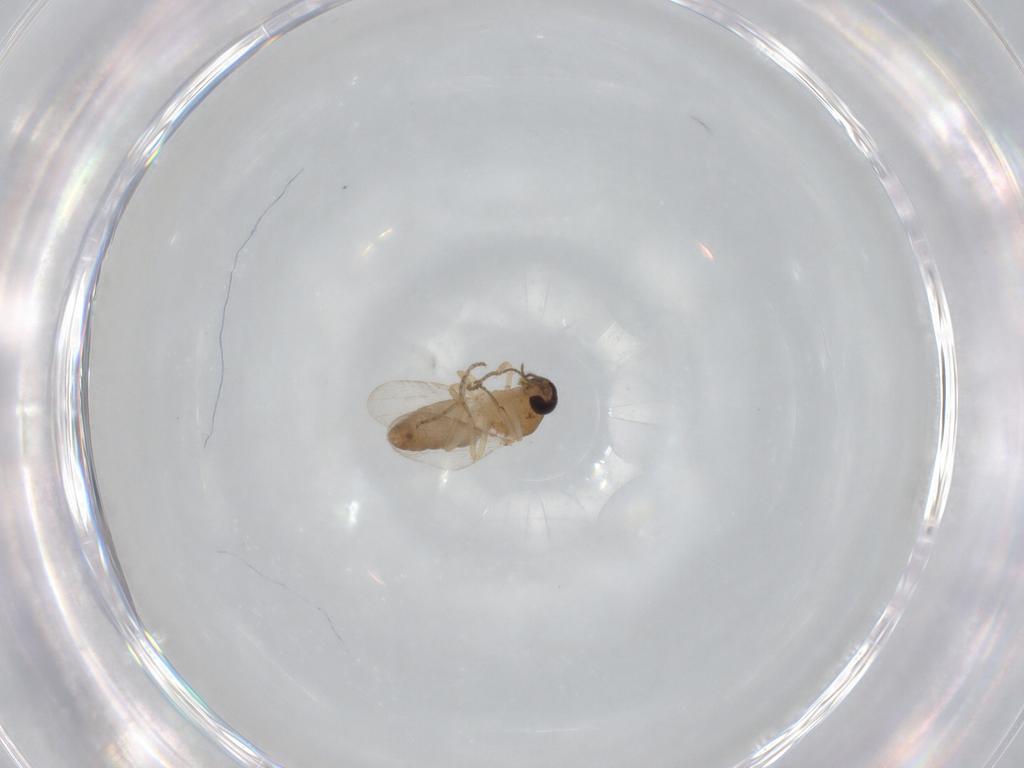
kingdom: Animalia
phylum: Arthropoda
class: Insecta
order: Diptera
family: Ceratopogonidae
